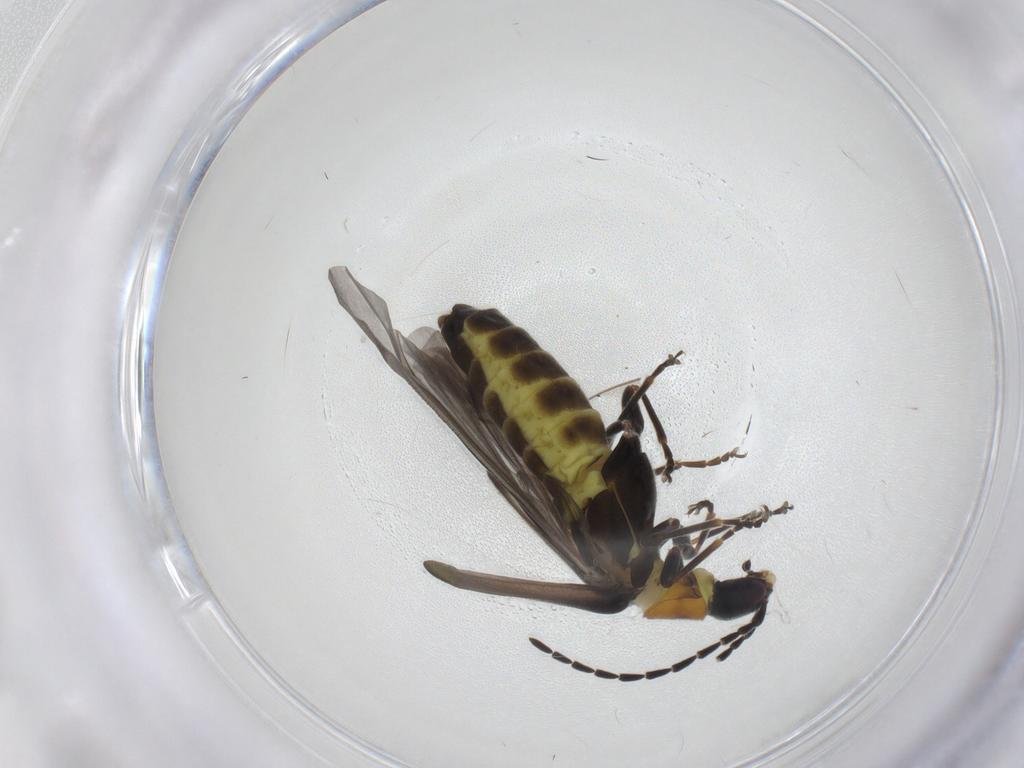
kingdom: Animalia
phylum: Arthropoda
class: Insecta
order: Coleoptera
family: Cantharidae
